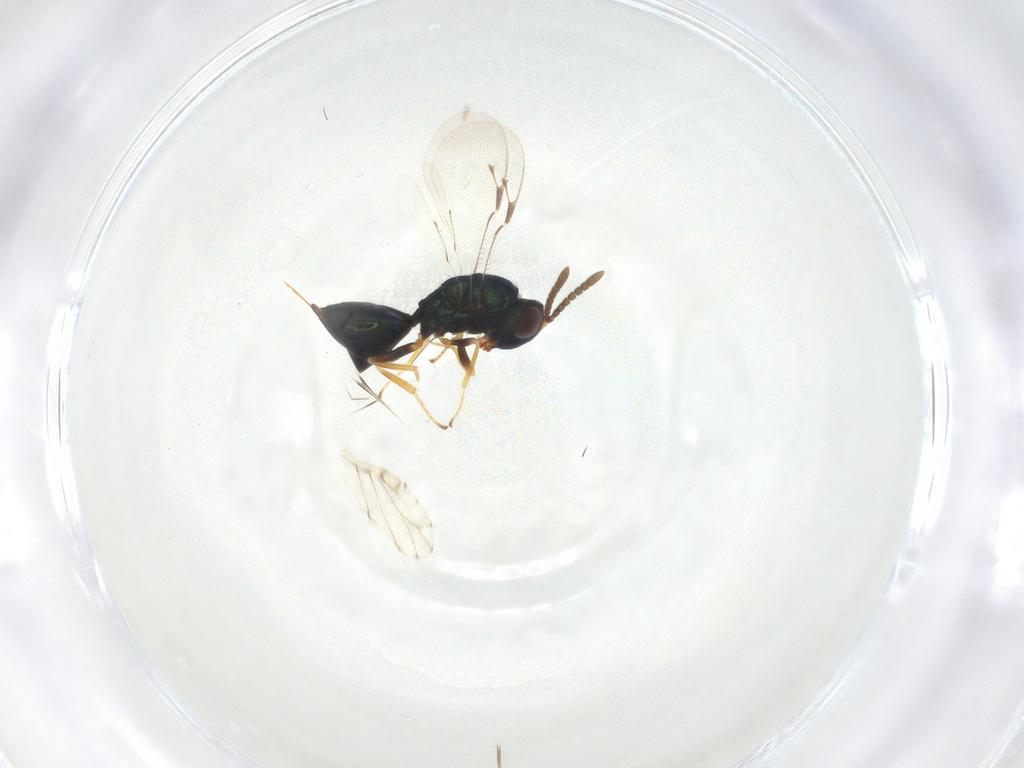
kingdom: Animalia
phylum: Arthropoda
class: Insecta
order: Hymenoptera
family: Pteromalidae
